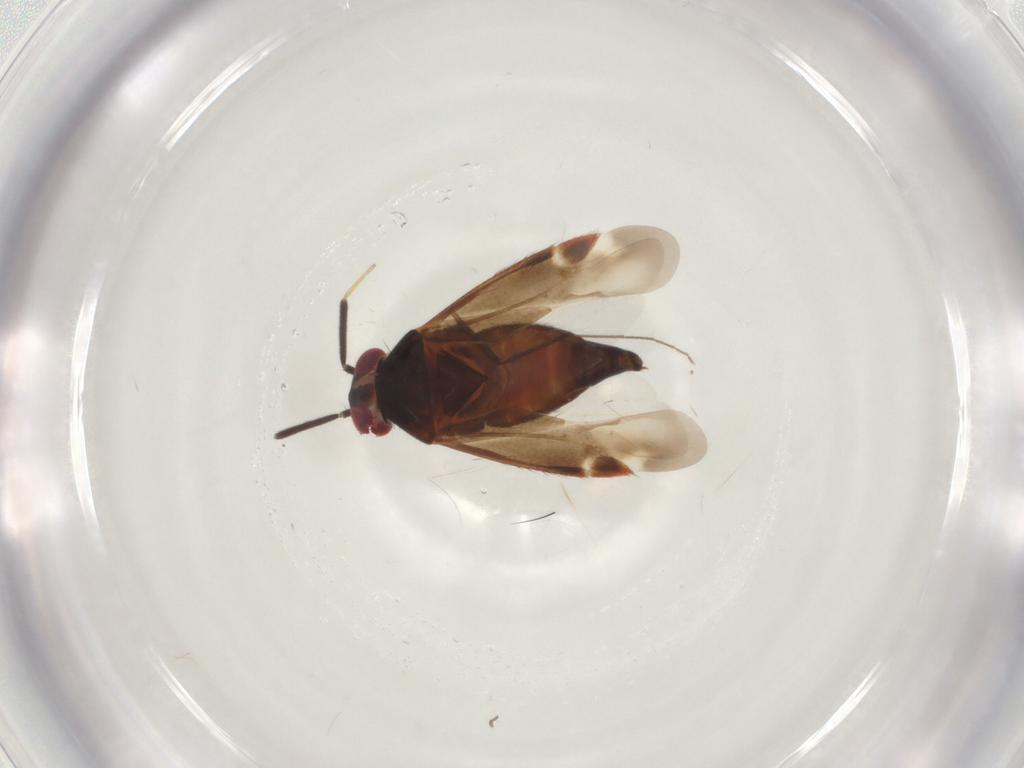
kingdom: Animalia
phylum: Arthropoda
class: Insecta
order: Hemiptera
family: Miridae
